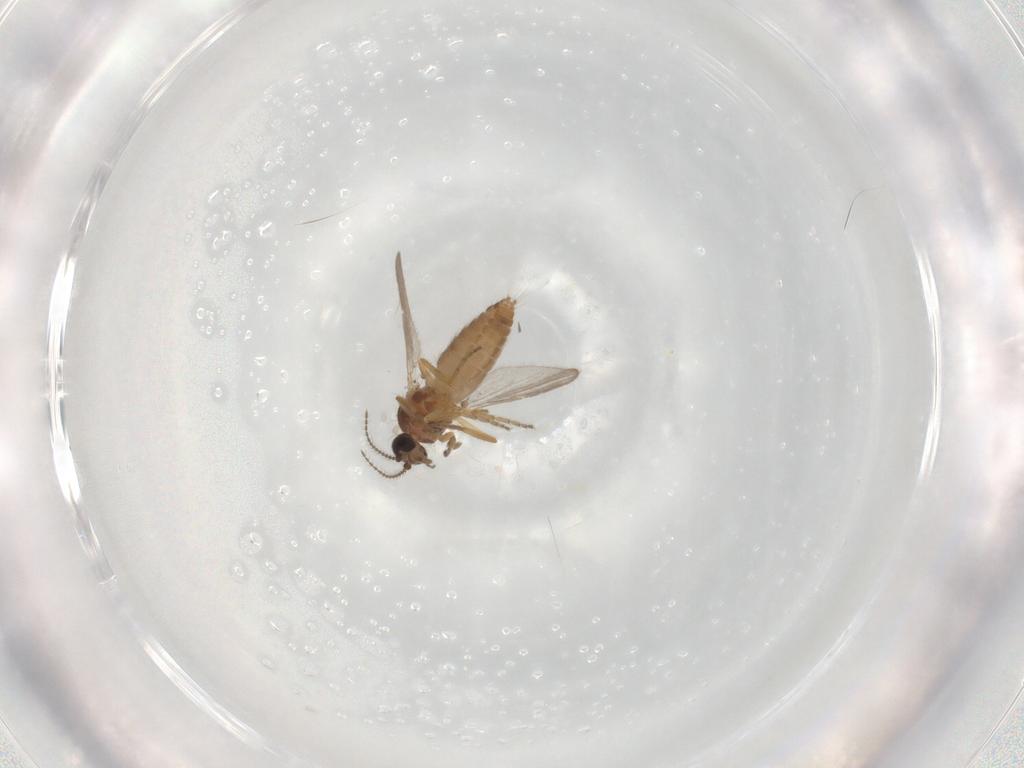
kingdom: Animalia
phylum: Arthropoda
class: Insecta
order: Diptera
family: Ceratopogonidae
